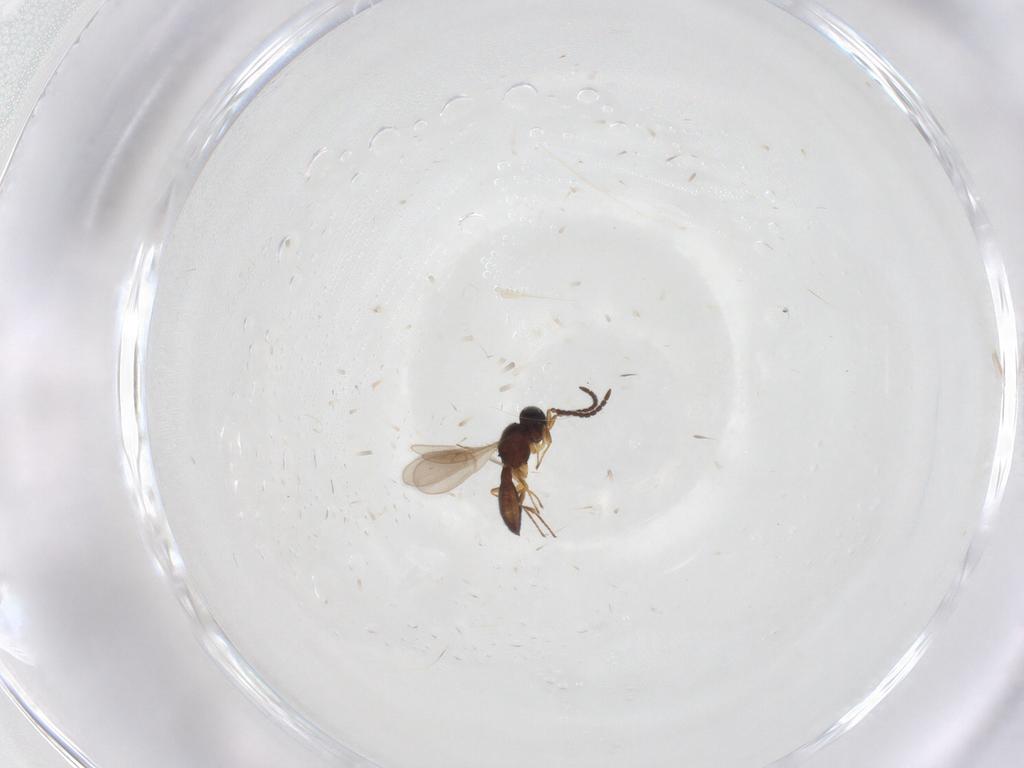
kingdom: Animalia
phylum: Arthropoda
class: Insecta
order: Hymenoptera
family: Scelionidae
